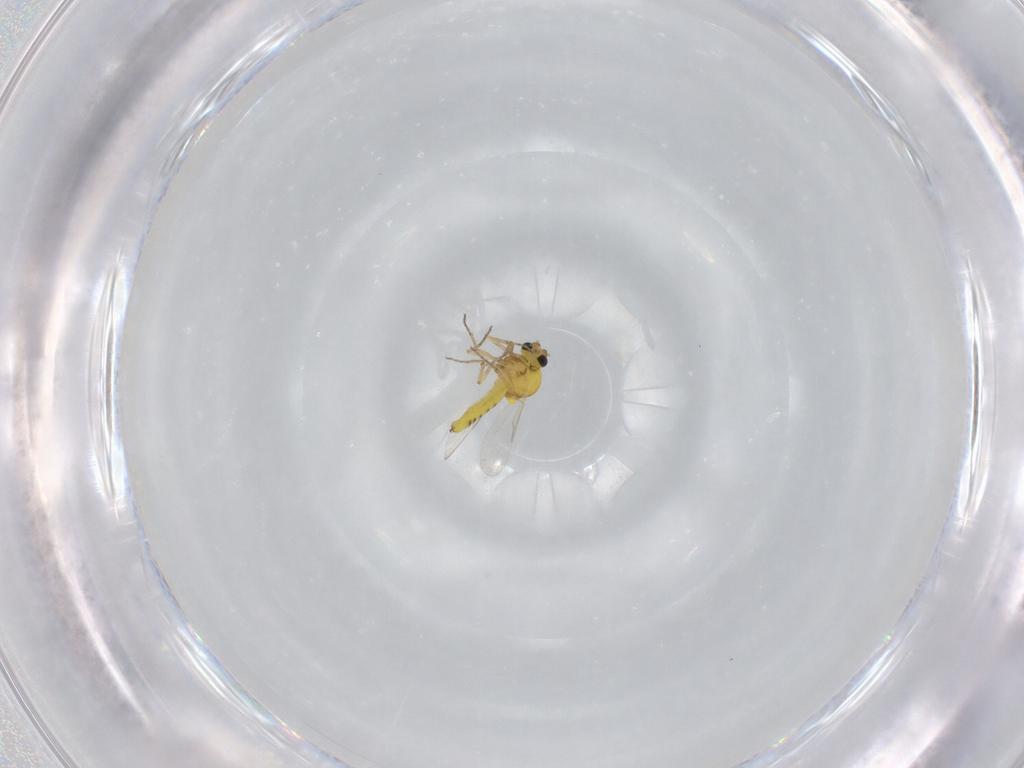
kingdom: Animalia
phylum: Arthropoda
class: Insecta
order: Diptera
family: Ceratopogonidae
